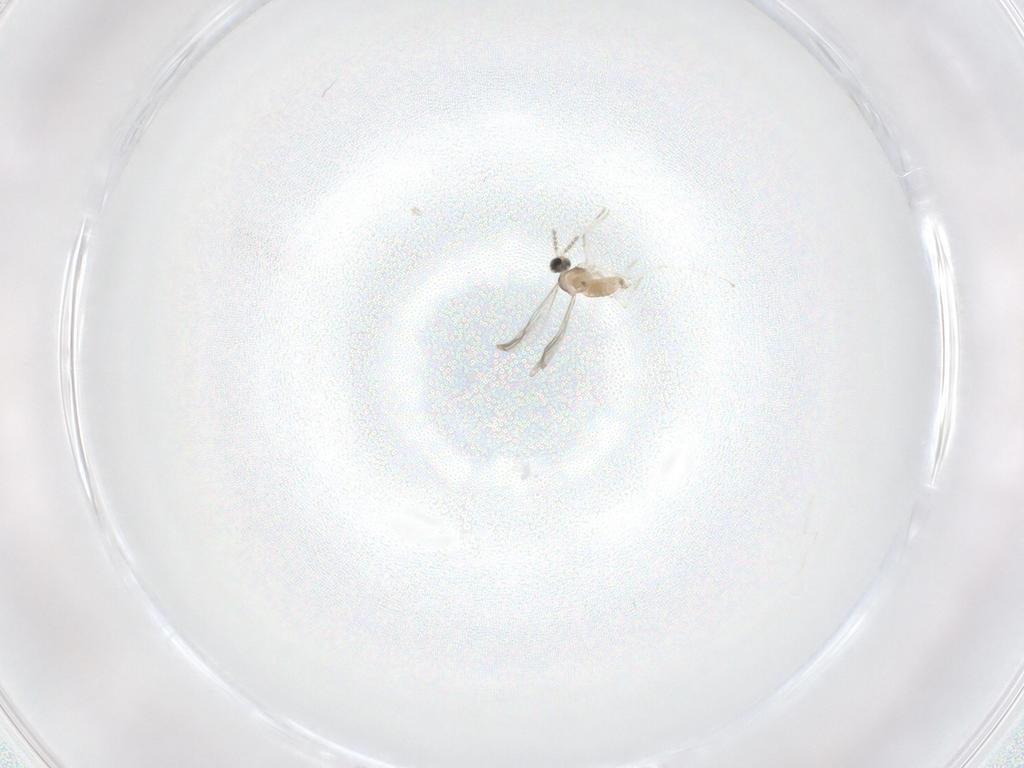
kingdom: Animalia
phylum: Arthropoda
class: Insecta
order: Diptera
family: Cecidomyiidae
